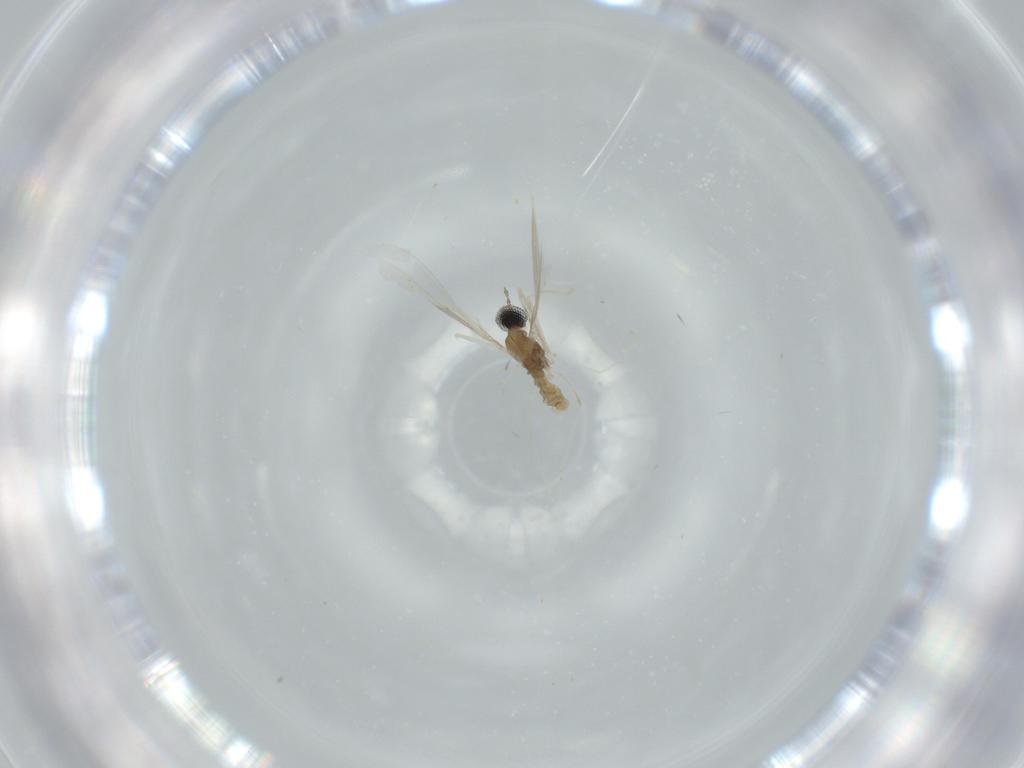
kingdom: Animalia
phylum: Arthropoda
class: Insecta
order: Diptera
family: Cecidomyiidae
